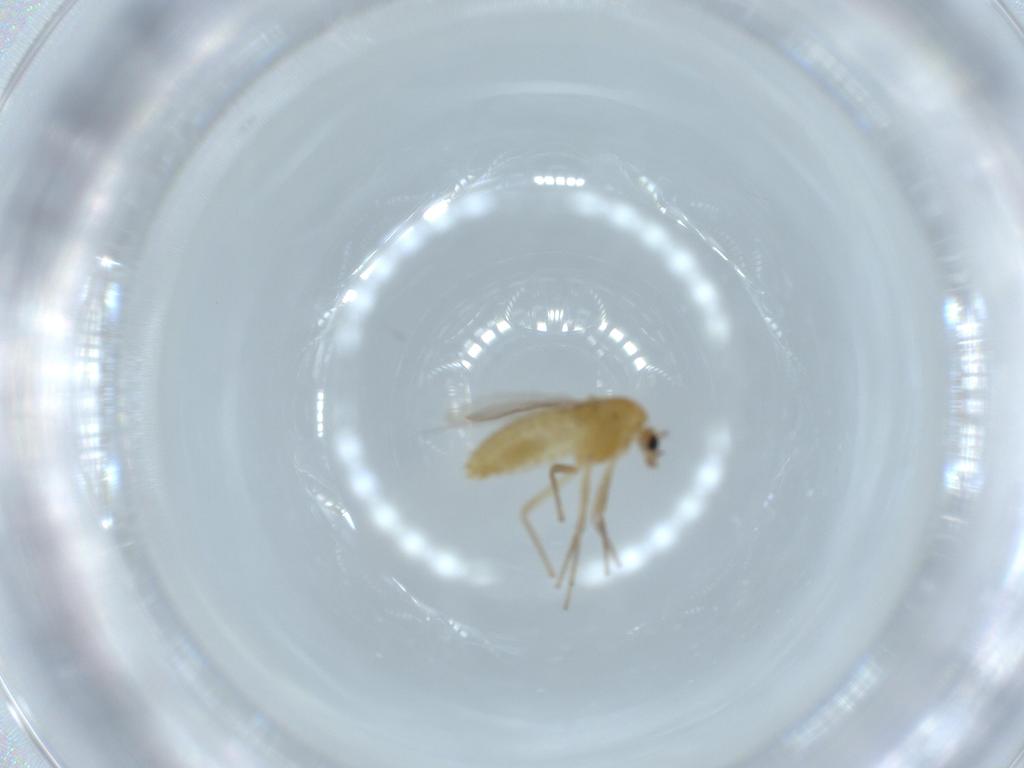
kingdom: Animalia
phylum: Arthropoda
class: Insecta
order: Diptera
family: Chironomidae
